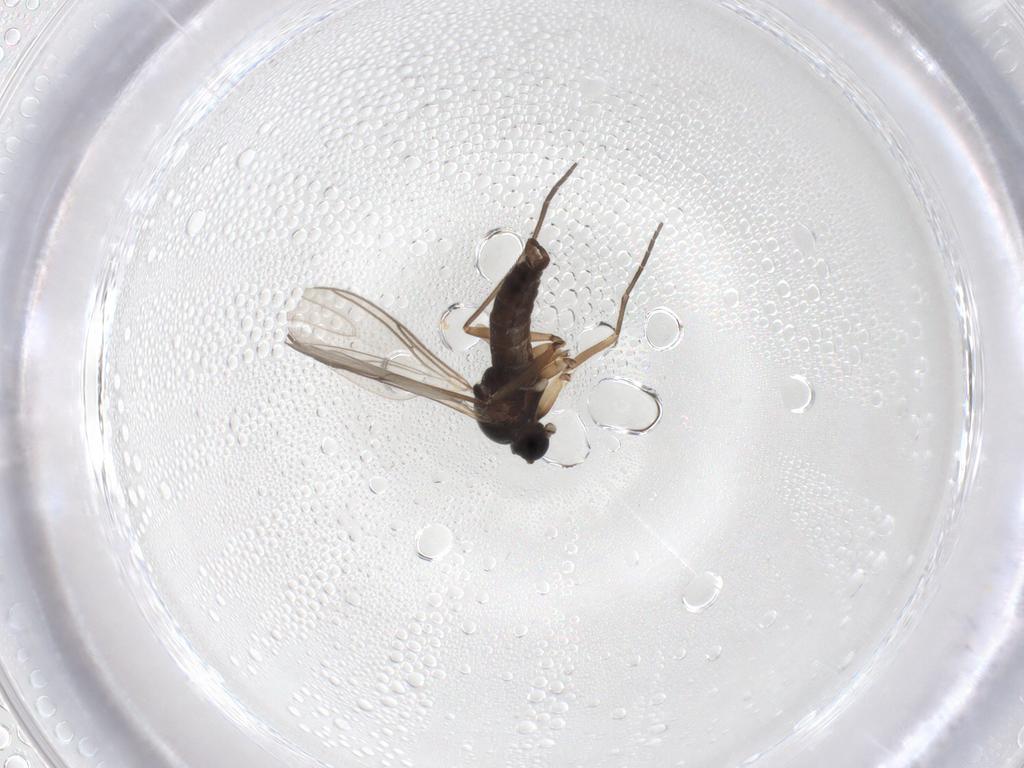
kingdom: Animalia
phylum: Arthropoda
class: Insecta
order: Diptera
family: Sciaridae
